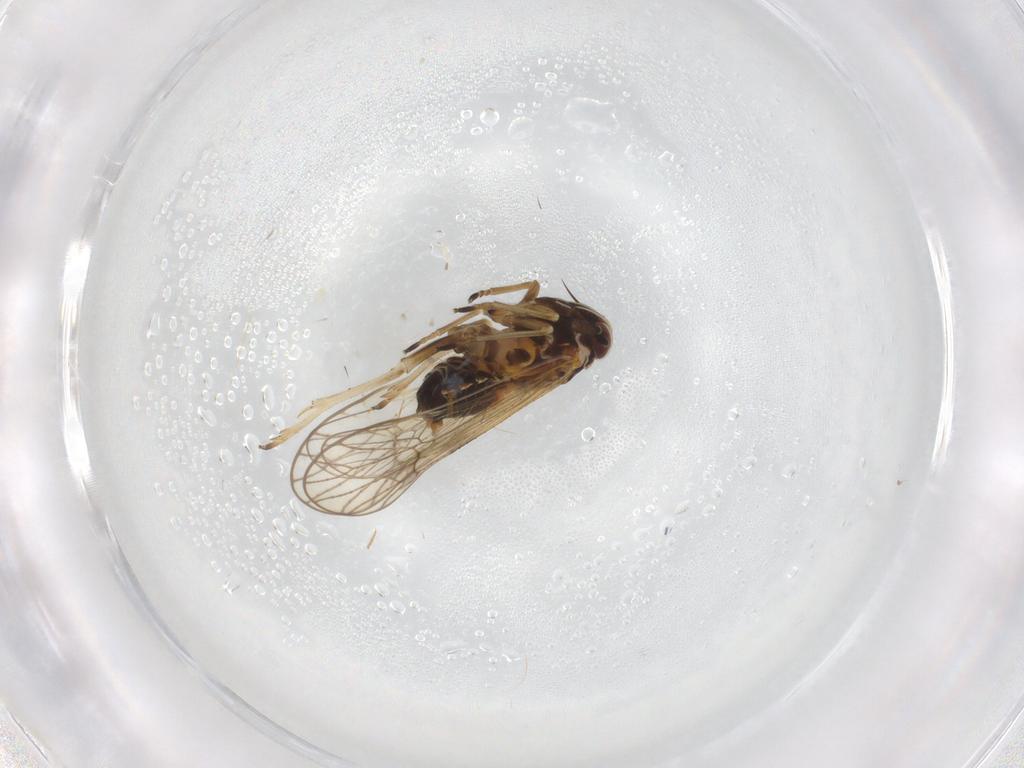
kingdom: Animalia
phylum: Arthropoda
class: Insecta
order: Hemiptera
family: Delphacidae
